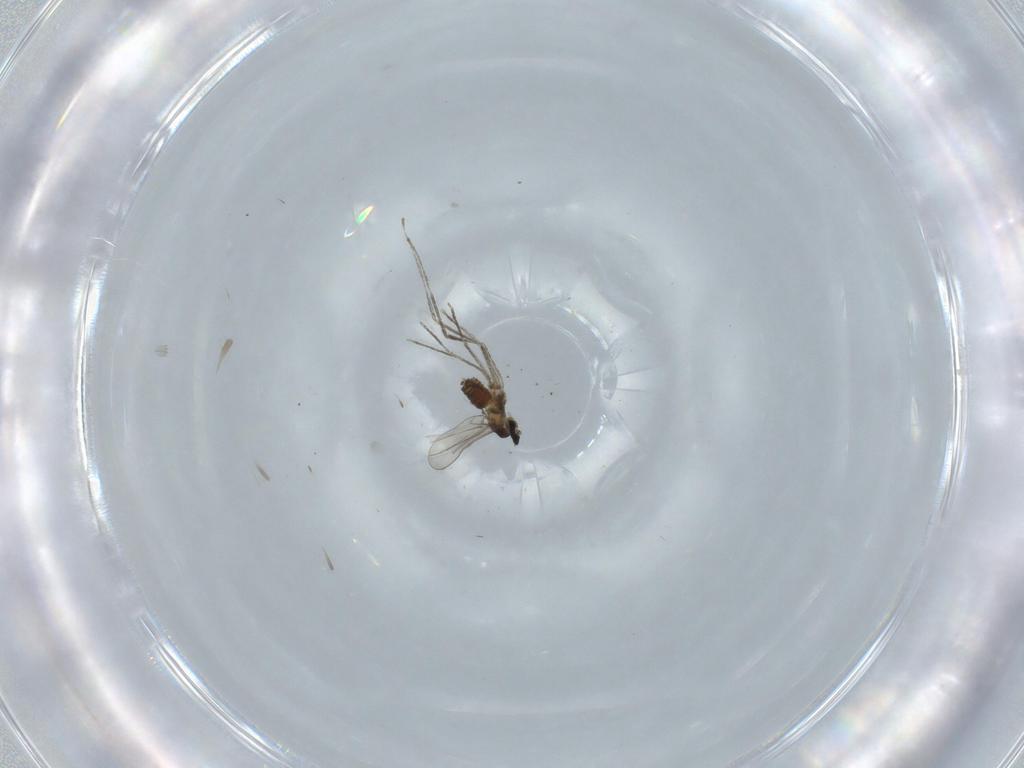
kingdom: Animalia
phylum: Arthropoda
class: Insecta
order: Diptera
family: Cecidomyiidae
